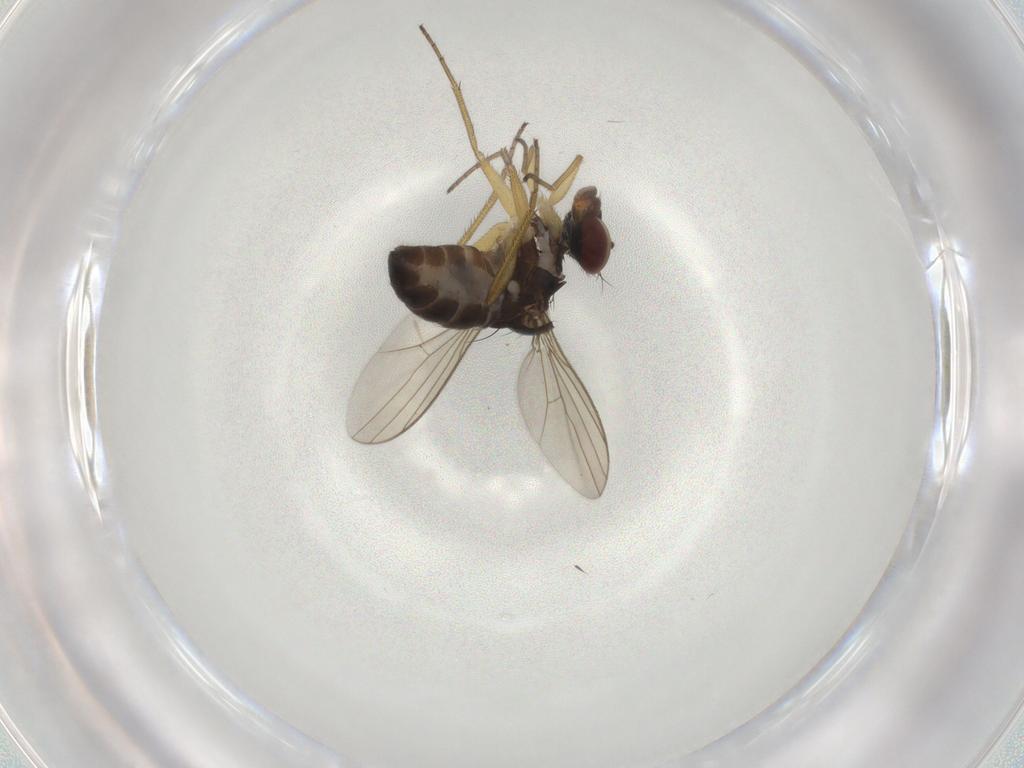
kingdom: Animalia
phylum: Arthropoda
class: Insecta
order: Diptera
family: Dolichopodidae
